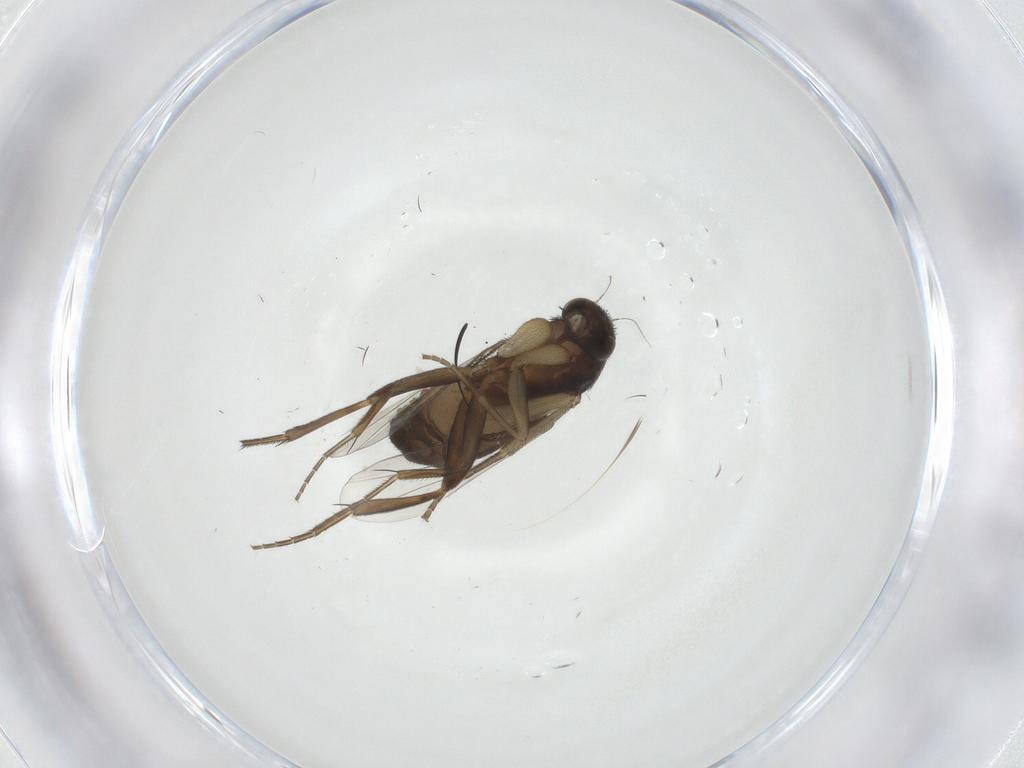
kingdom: Animalia
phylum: Arthropoda
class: Insecta
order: Diptera
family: Phoridae
